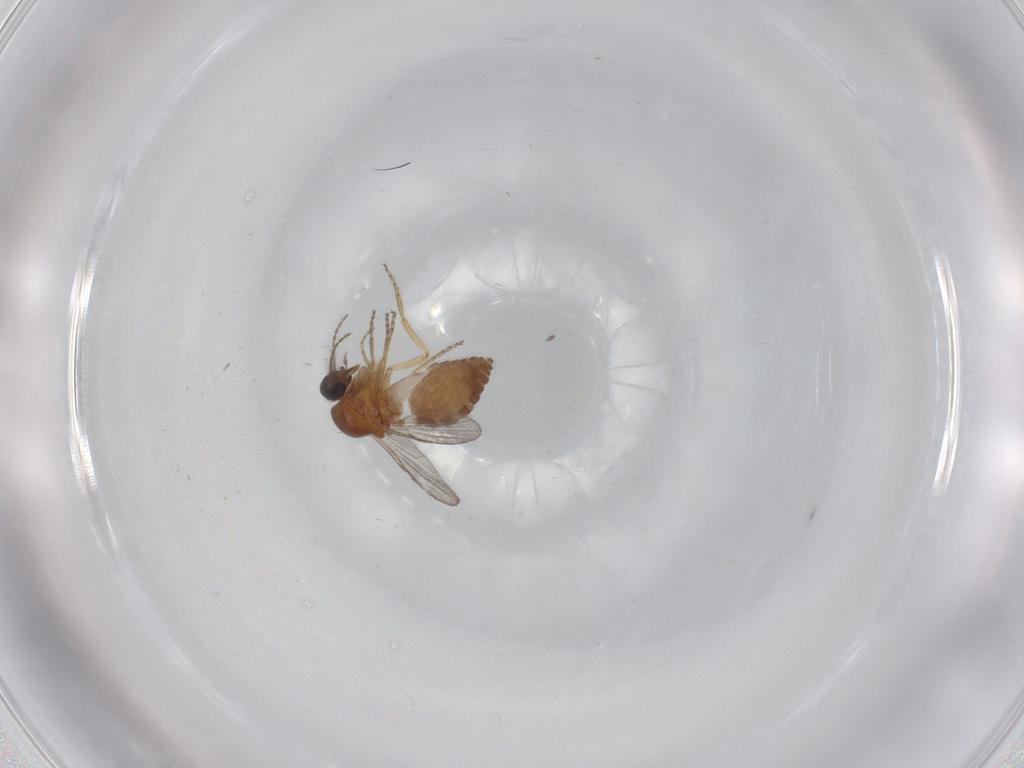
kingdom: Animalia
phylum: Arthropoda
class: Insecta
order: Diptera
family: Ceratopogonidae
